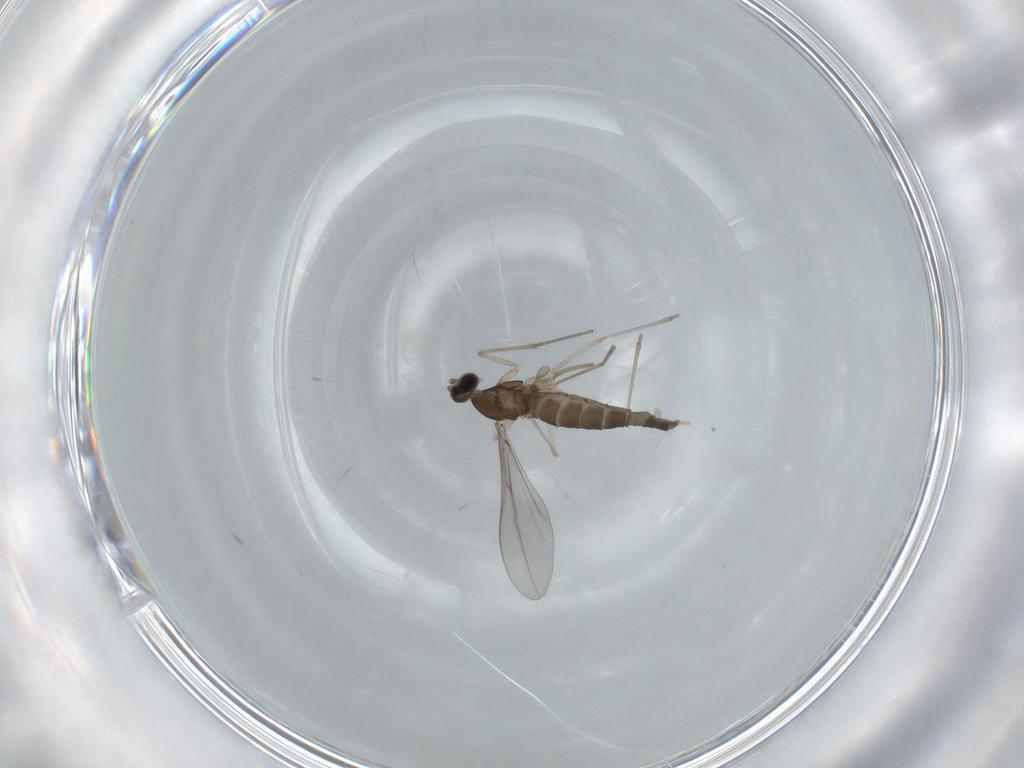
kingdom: Animalia
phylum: Arthropoda
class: Insecta
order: Diptera
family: Cecidomyiidae
